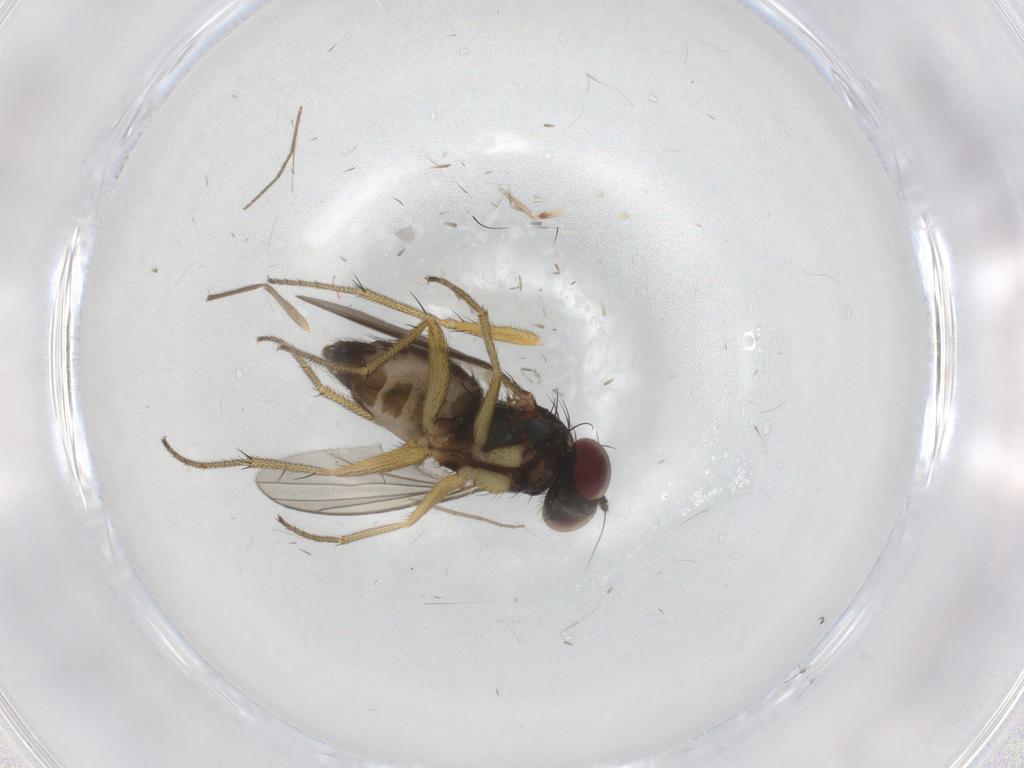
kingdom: Animalia
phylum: Arthropoda
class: Insecta
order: Diptera
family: Dolichopodidae
